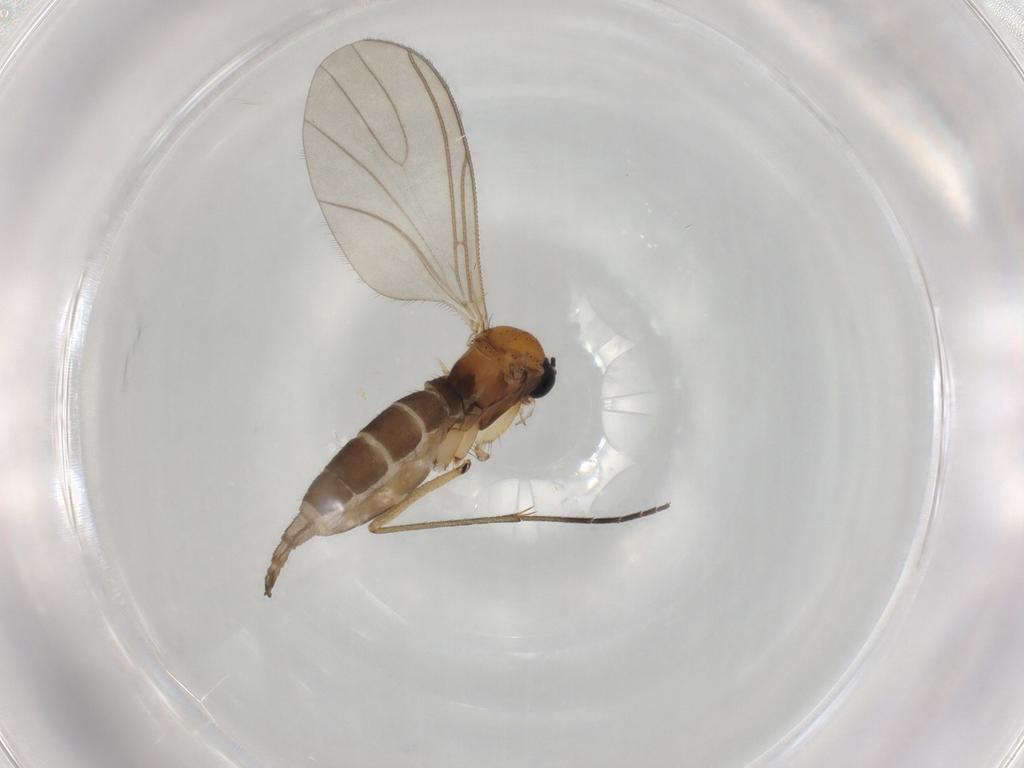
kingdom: Animalia
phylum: Arthropoda
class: Insecta
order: Diptera
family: Sciaridae
